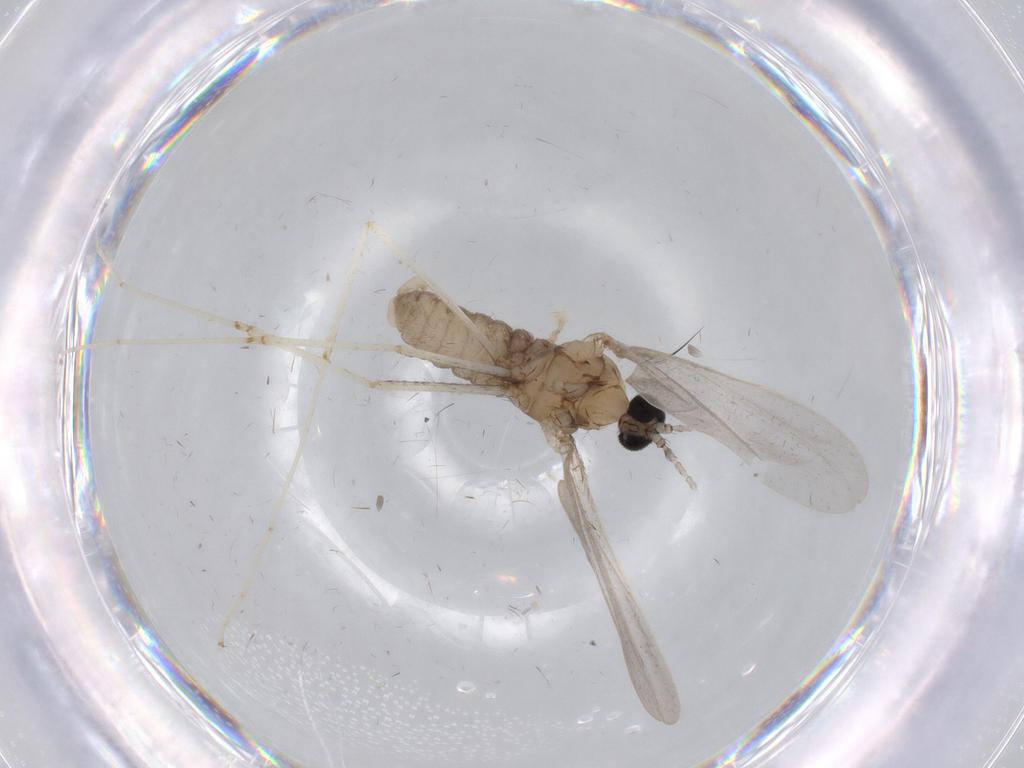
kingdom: Animalia
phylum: Arthropoda
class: Insecta
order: Diptera
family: Cecidomyiidae
